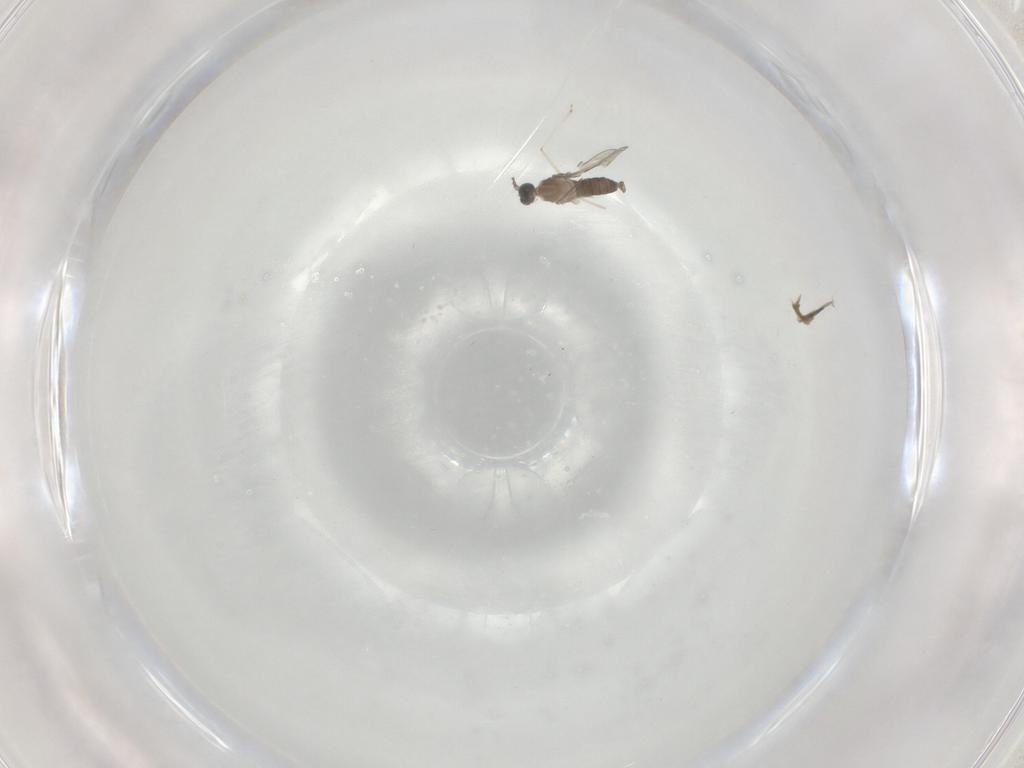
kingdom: Animalia
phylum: Arthropoda
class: Insecta
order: Diptera
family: Cecidomyiidae
